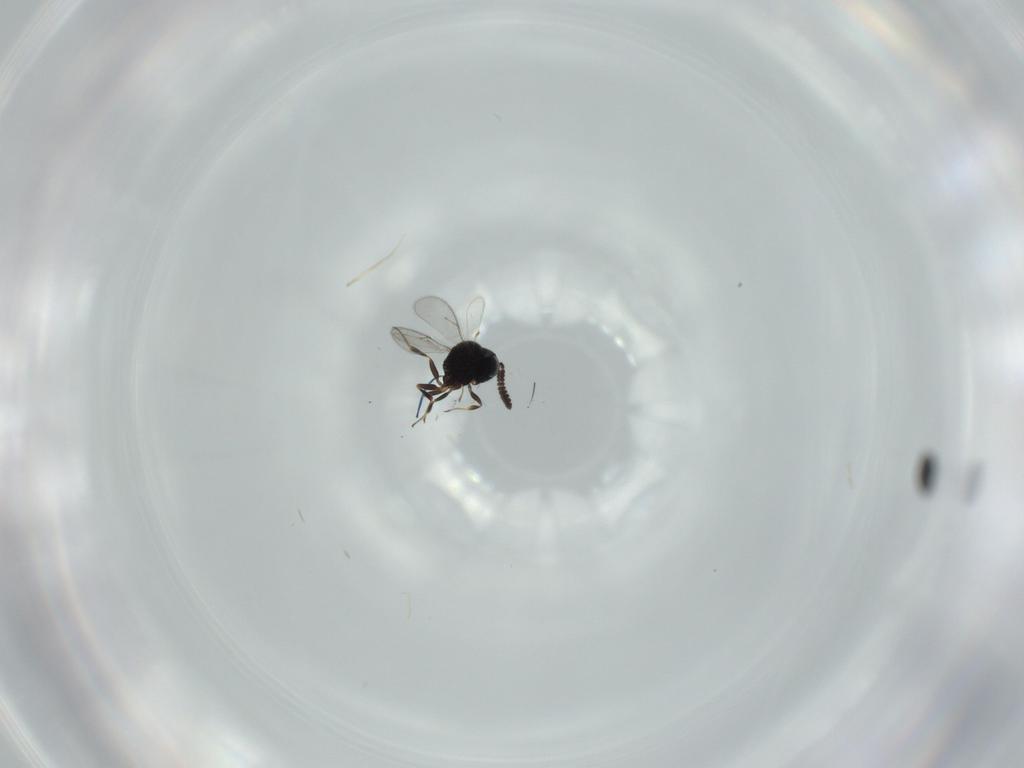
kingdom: Animalia
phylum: Arthropoda
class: Insecta
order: Hymenoptera
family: Scelionidae
